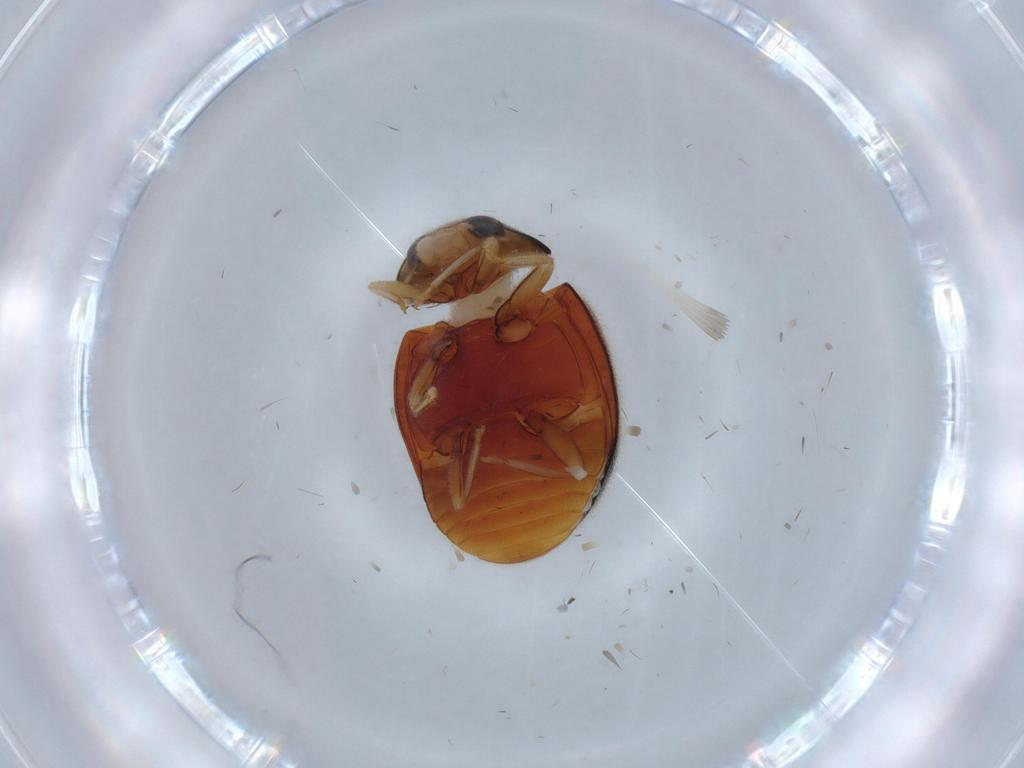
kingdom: Animalia
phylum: Arthropoda
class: Insecta
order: Coleoptera
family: Coccinellidae
